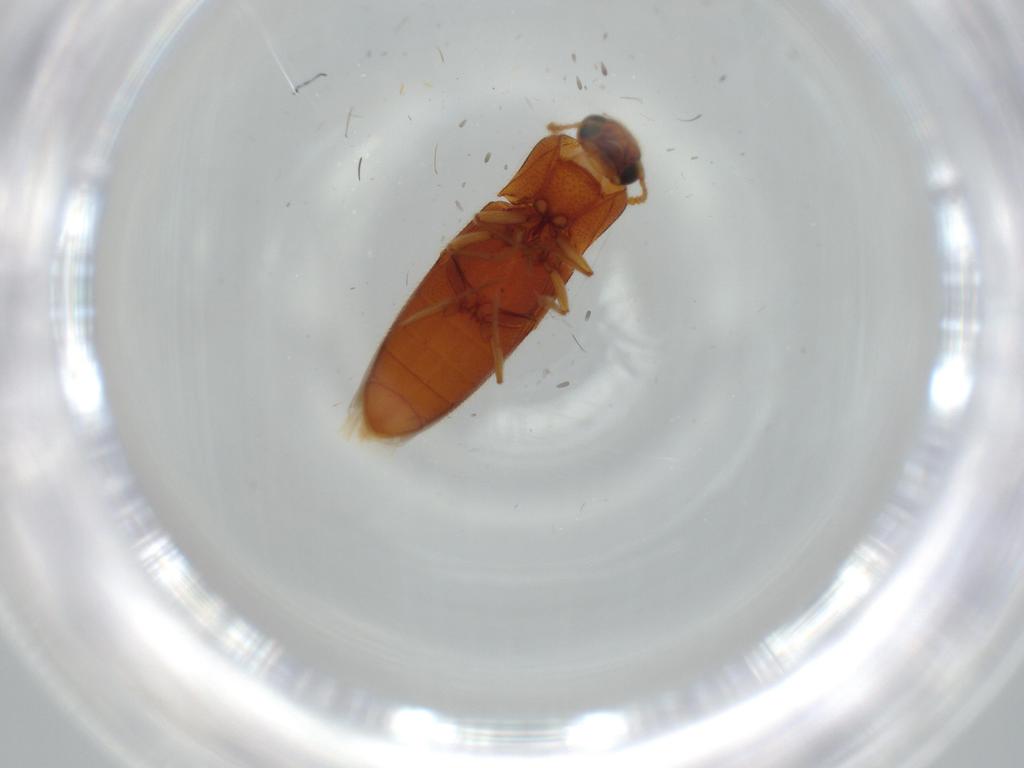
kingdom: Animalia
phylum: Arthropoda
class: Insecta
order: Coleoptera
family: Elateridae
